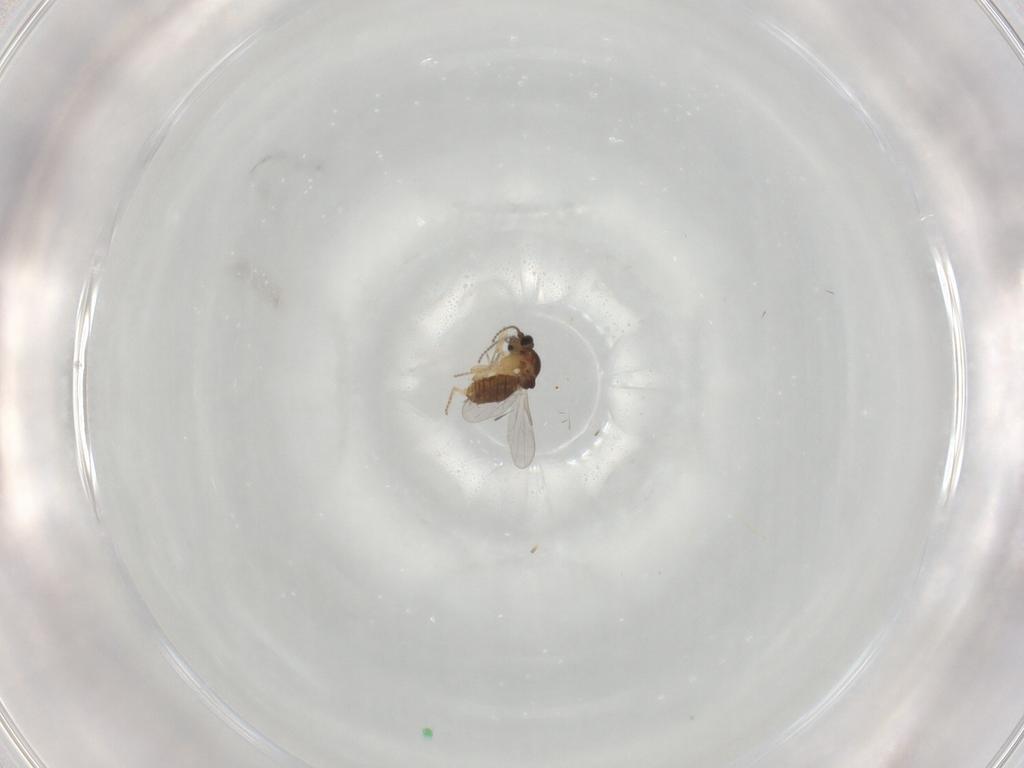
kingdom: Animalia
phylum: Arthropoda
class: Insecta
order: Diptera
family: Ceratopogonidae
